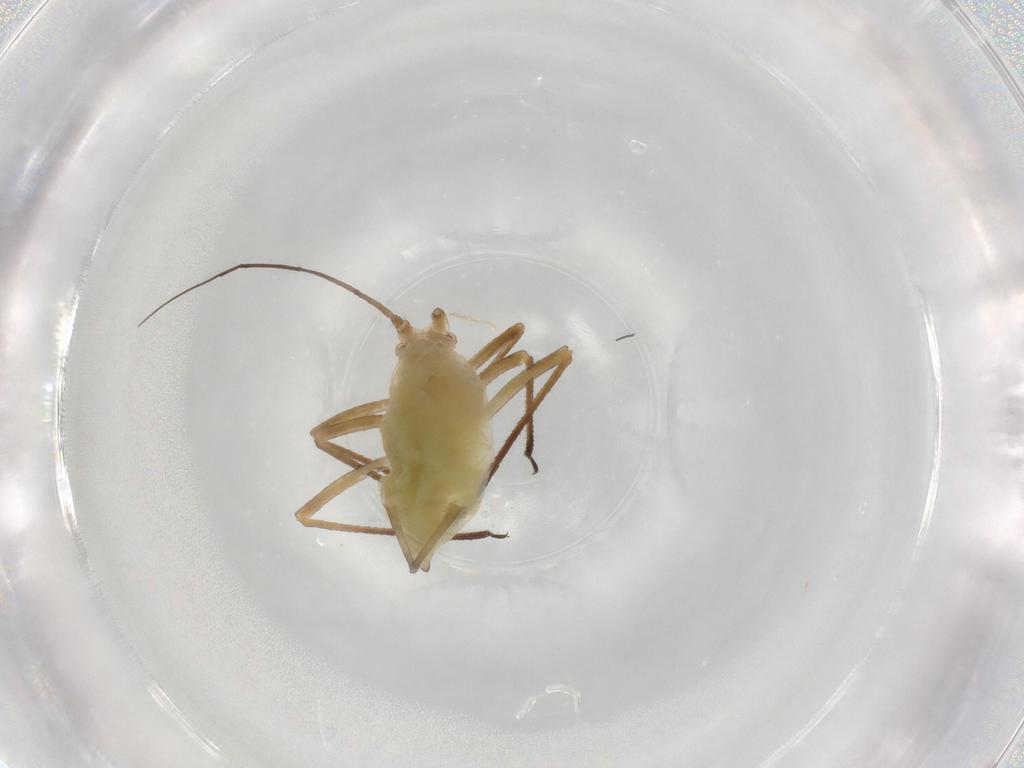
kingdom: Animalia
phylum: Arthropoda
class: Insecta
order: Hemiptera
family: Aphididae
